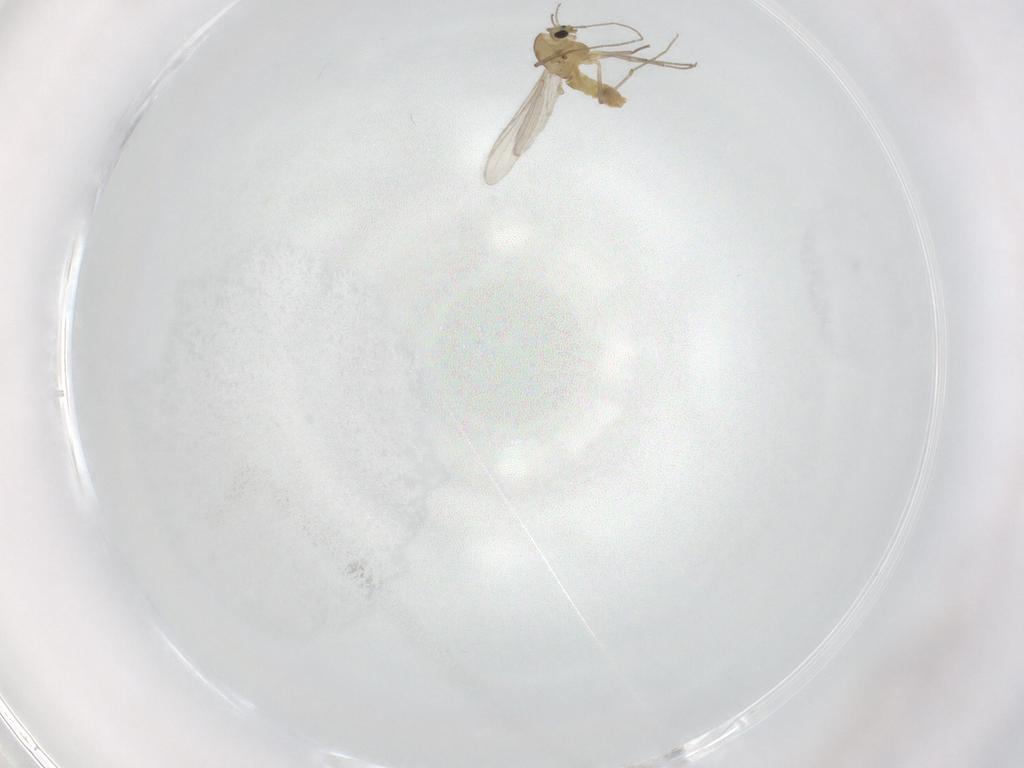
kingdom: Animalia
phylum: Arthropoda
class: Insecta
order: Diptera
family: Chironomidae
